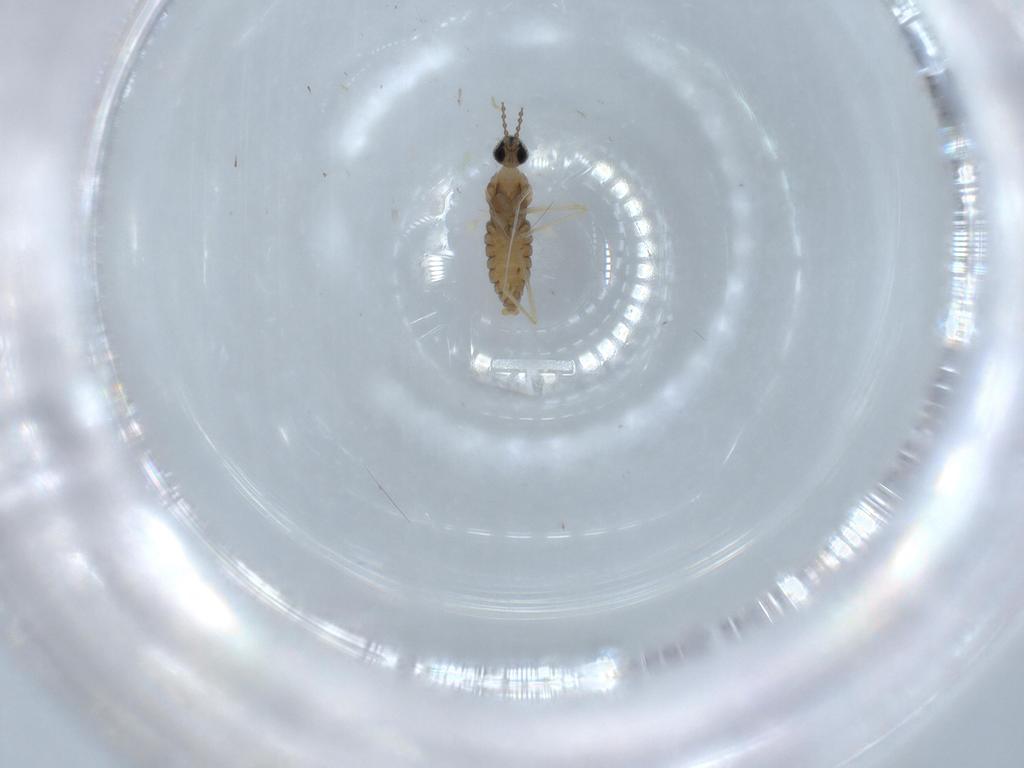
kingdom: Animalia
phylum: Arthropoda
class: Insecta
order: Diptera
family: Cecidomyiidae
